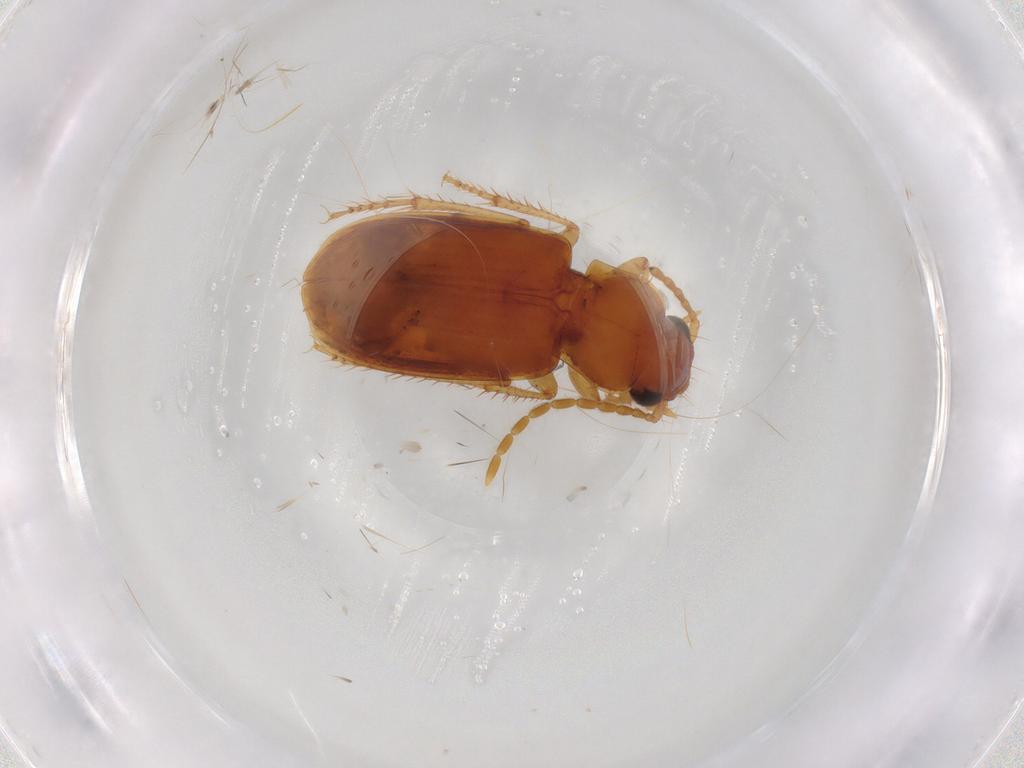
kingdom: Animalia
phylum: Arthropoda
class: Insecta
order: Coleoptera
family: Carabidae
